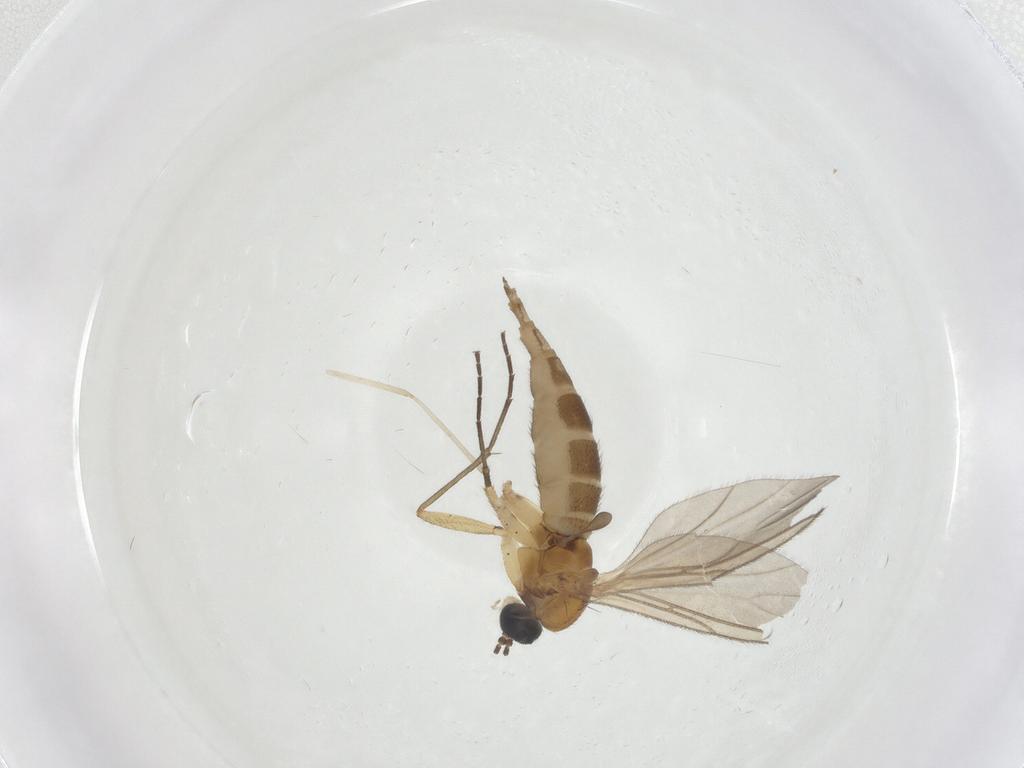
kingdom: Animalia
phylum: Arthropoda
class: Insecta
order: Diptera
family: Cecidomyiidae
